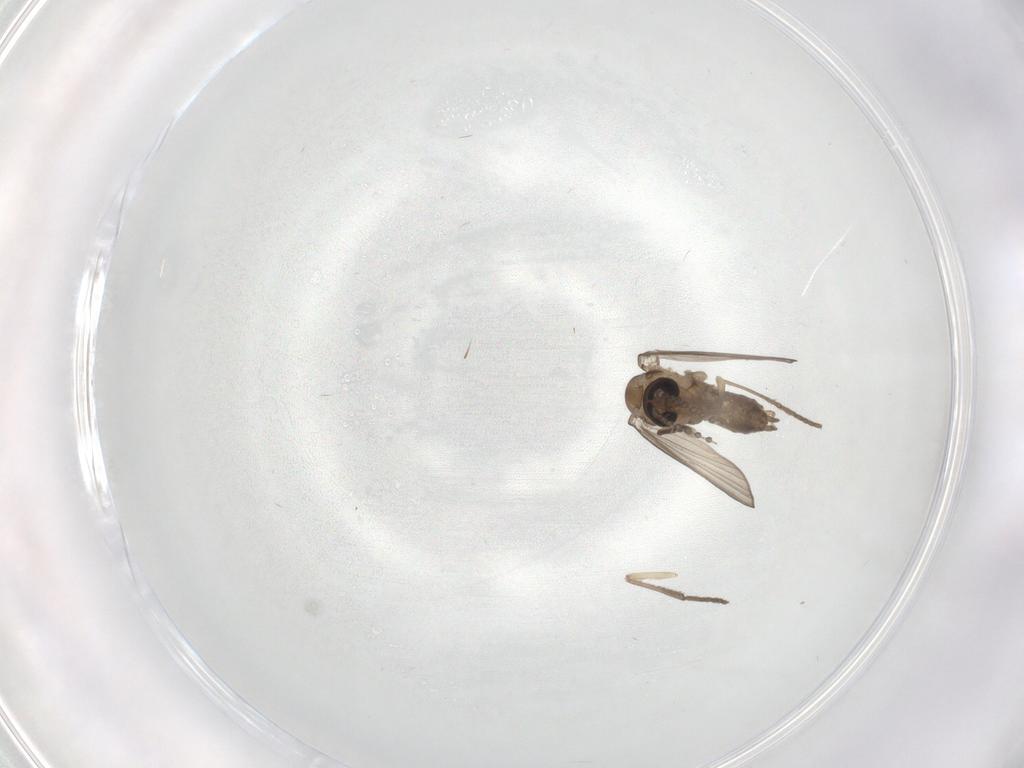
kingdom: Animalia
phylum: Arthropoda
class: Insecta
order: Diptera
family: Psychodidae
